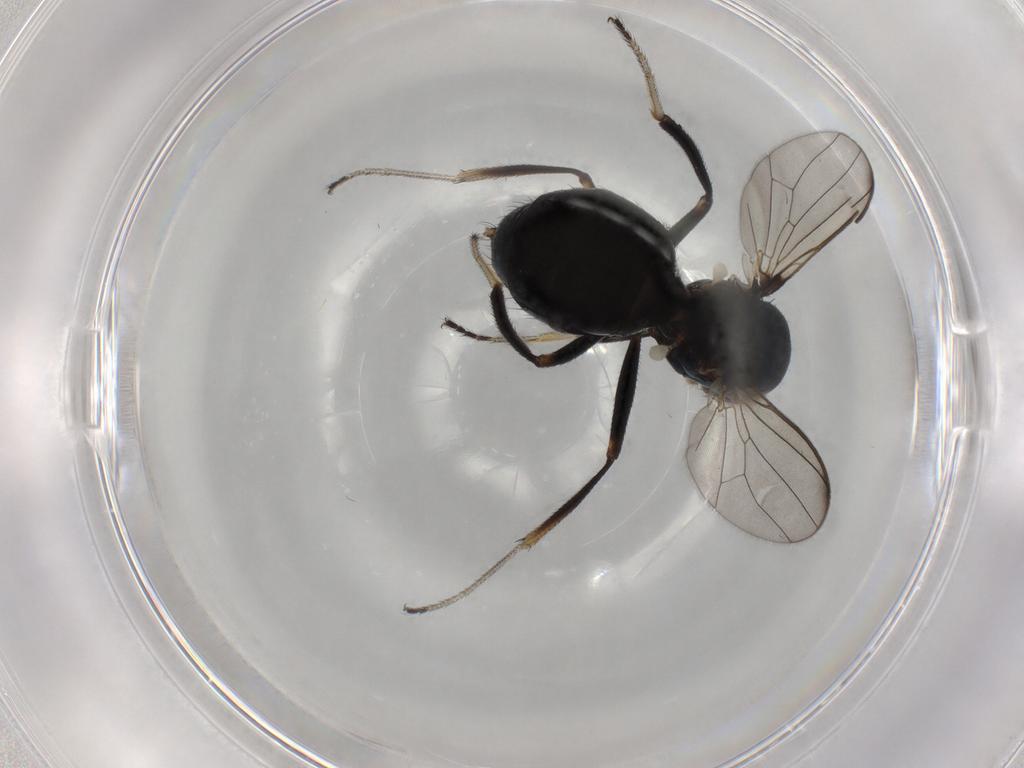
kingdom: Animalia
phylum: Arthropoda
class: Insecta
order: Diptera
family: Sepsidae
